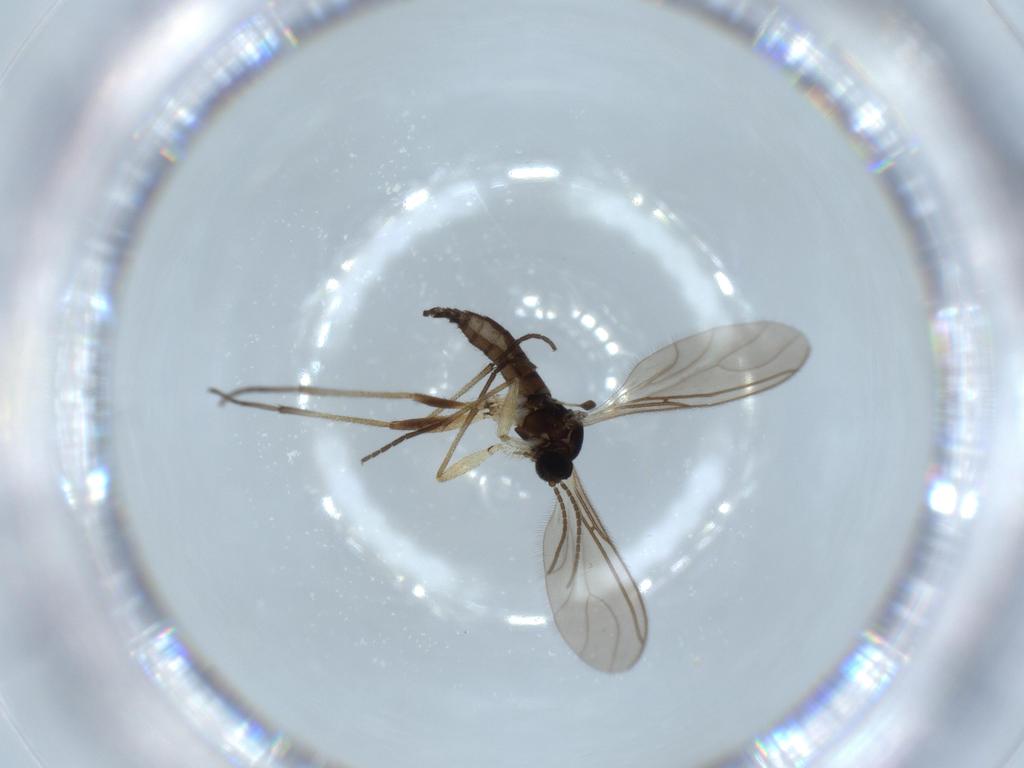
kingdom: Animalia
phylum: Arthropoda
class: Insecta
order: Diptera
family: Sciaridae
